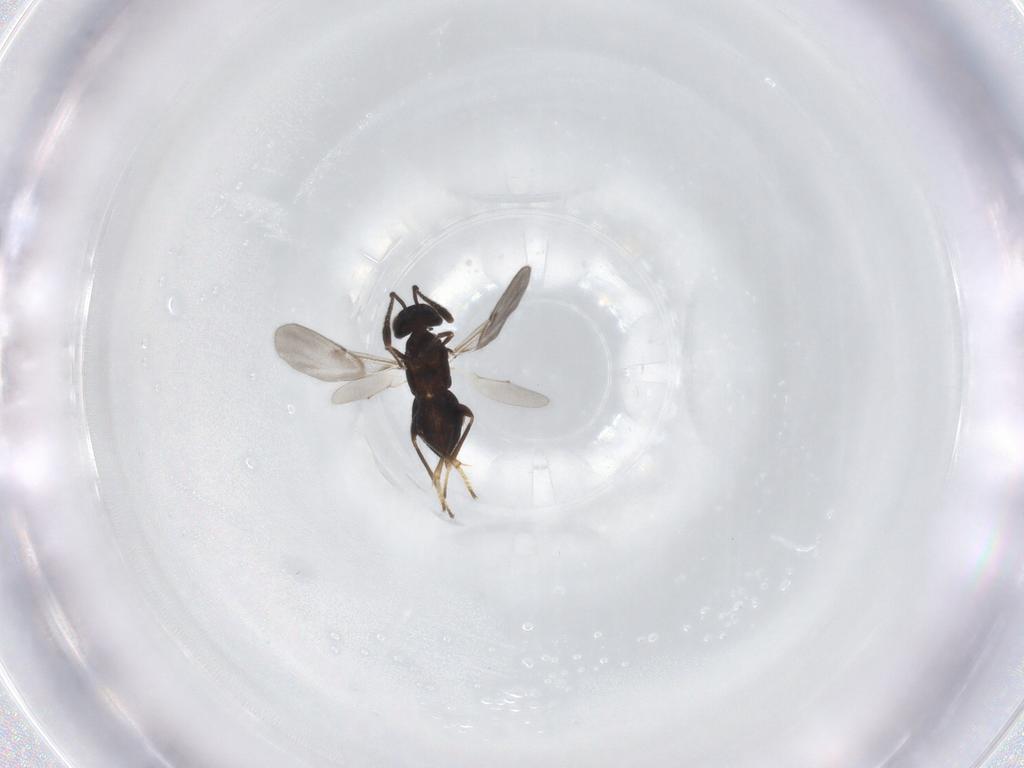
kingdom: Animalia
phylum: Arthropoda
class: Insecta
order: Hymenoptera
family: Encyrtidae
